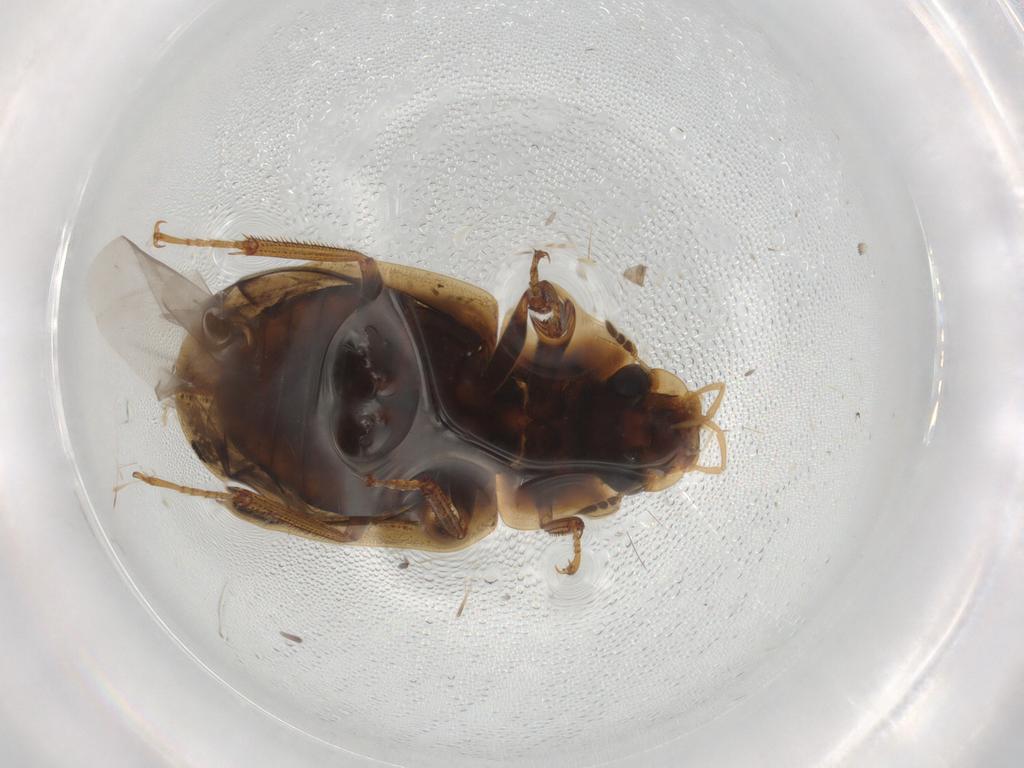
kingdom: Animalia
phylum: Arthropoda
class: Insecta
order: Coleoptera
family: Hydrophilidae
